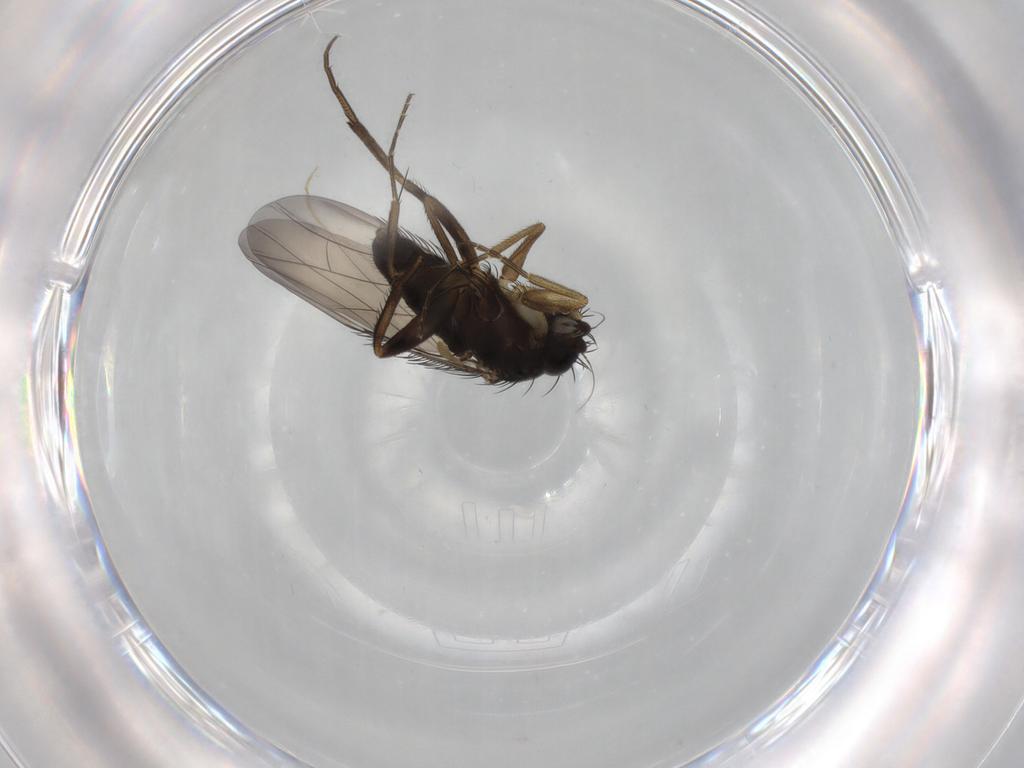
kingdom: Animalia
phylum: Arthropoda
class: Insecta
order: Diptera
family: Phoridae
